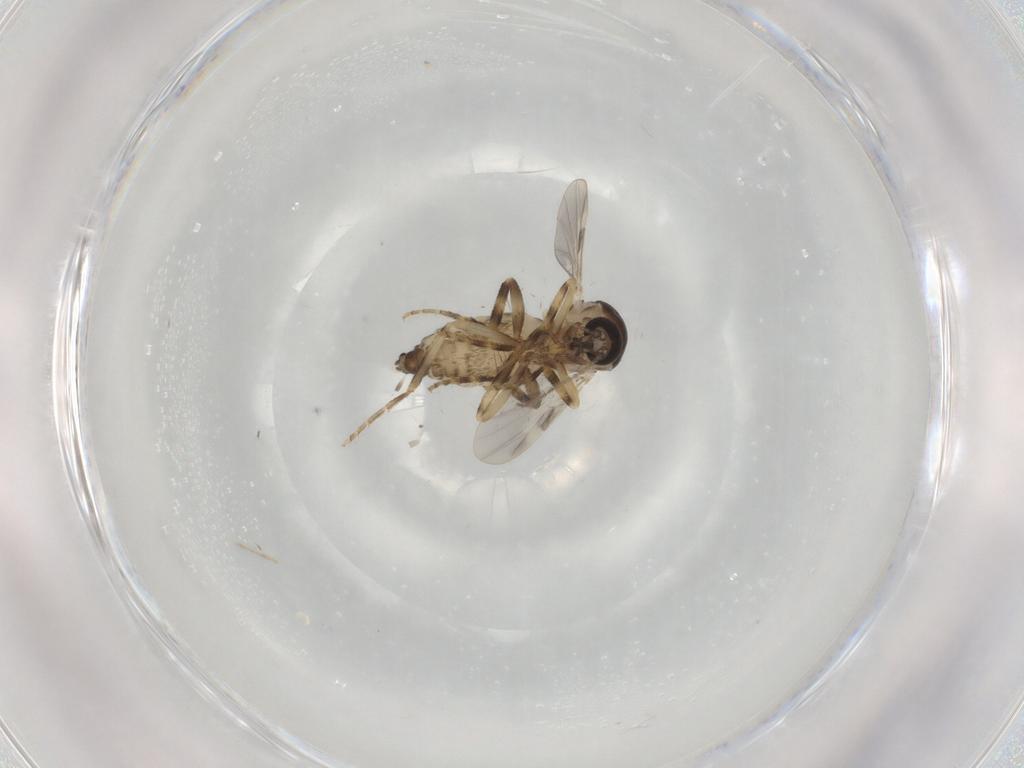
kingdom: Animalia
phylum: Arthropoda
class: Insecta
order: Diptera
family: Ceratopogonidae
